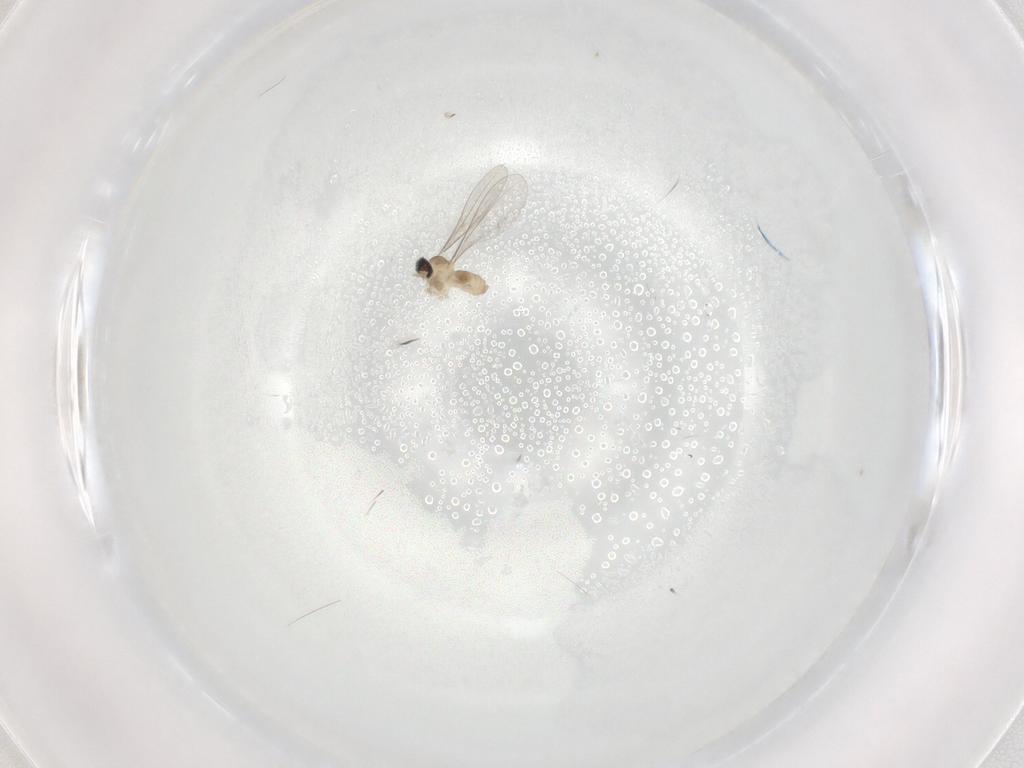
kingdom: Animalia
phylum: Arthropoda
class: Insecta
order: Diptera
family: Cecidomyiidae
